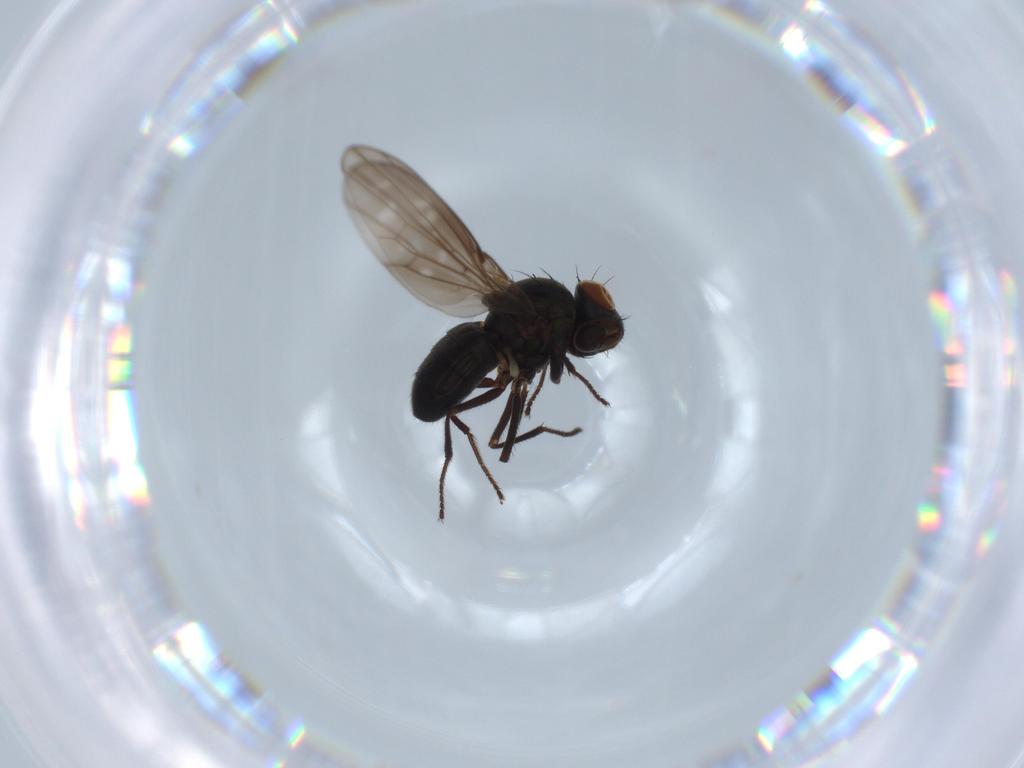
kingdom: Animalia
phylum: Arthropoda
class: Insecta
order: Diptera
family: Ephydridae
